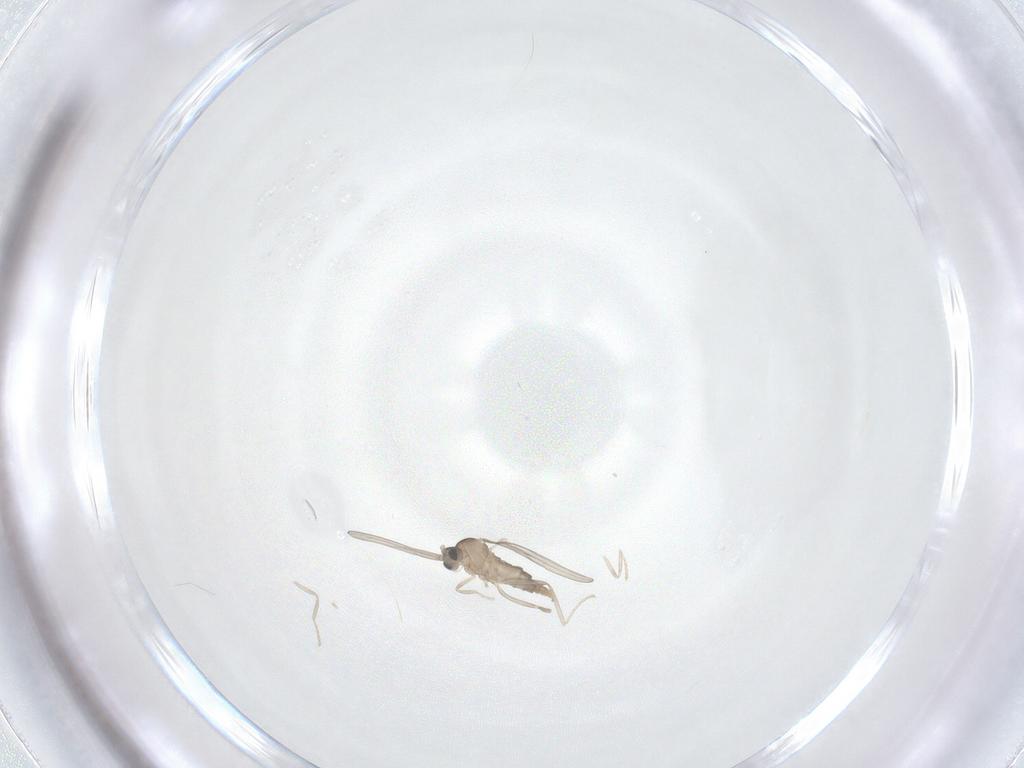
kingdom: Animalia
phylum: Arthropoda
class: Insecta
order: Diptera
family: Cecidomyiidae
